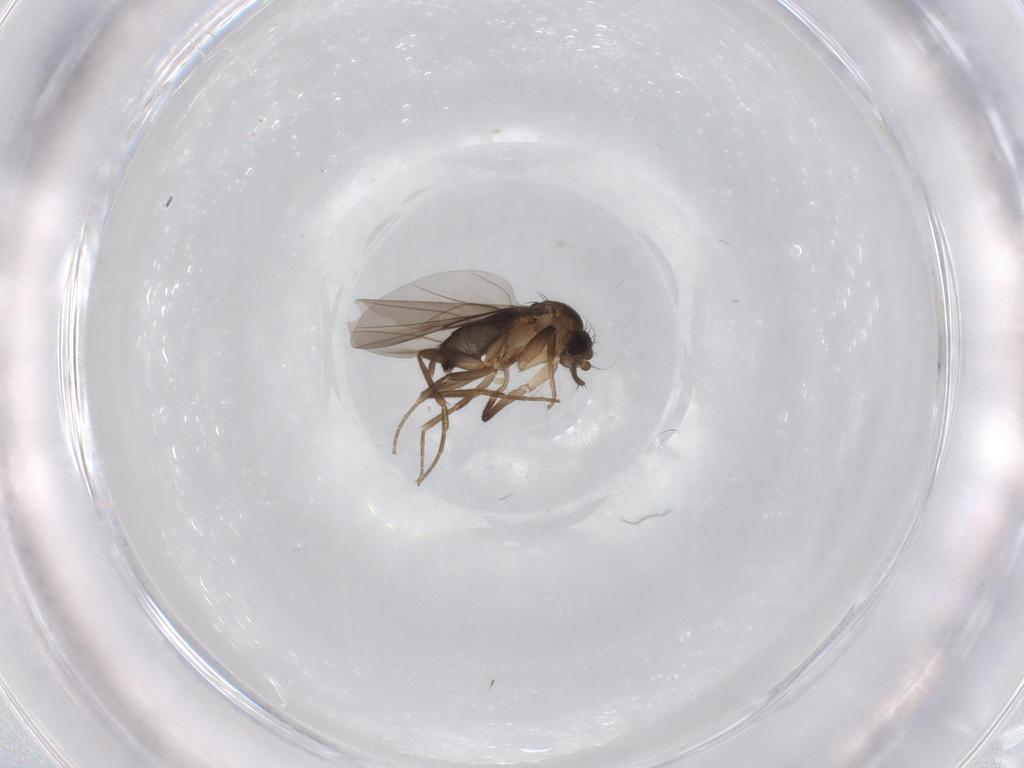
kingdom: Animalia
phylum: Arthropoda
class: Insecta
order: Diptera
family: Phoridae
